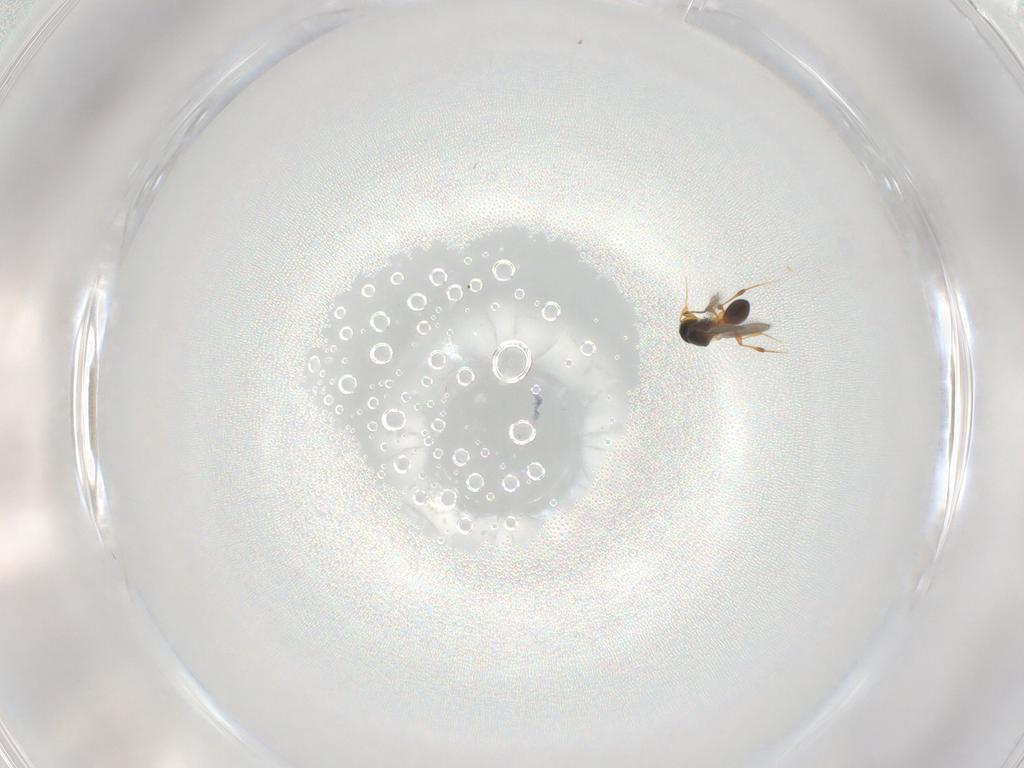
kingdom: Animalia
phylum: Arthropoda
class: Insecta
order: Hymenoptera
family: Platygastridae
